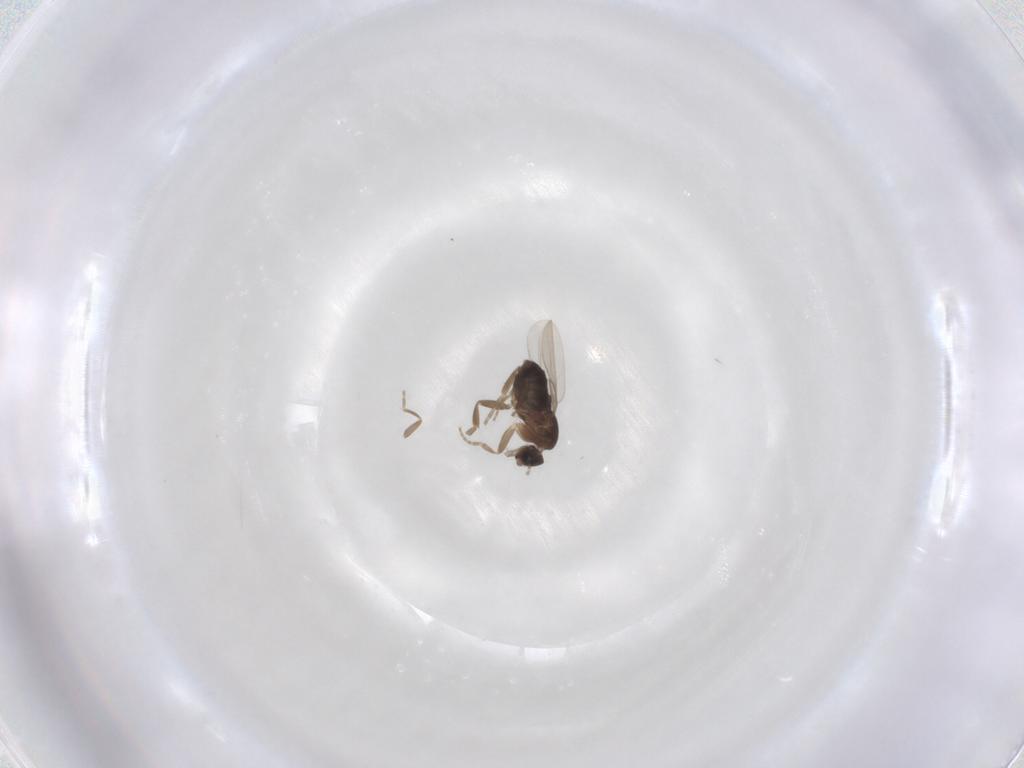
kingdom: Animalia
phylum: Arthropoda
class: Insecta
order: Diptera
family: Phoridae
